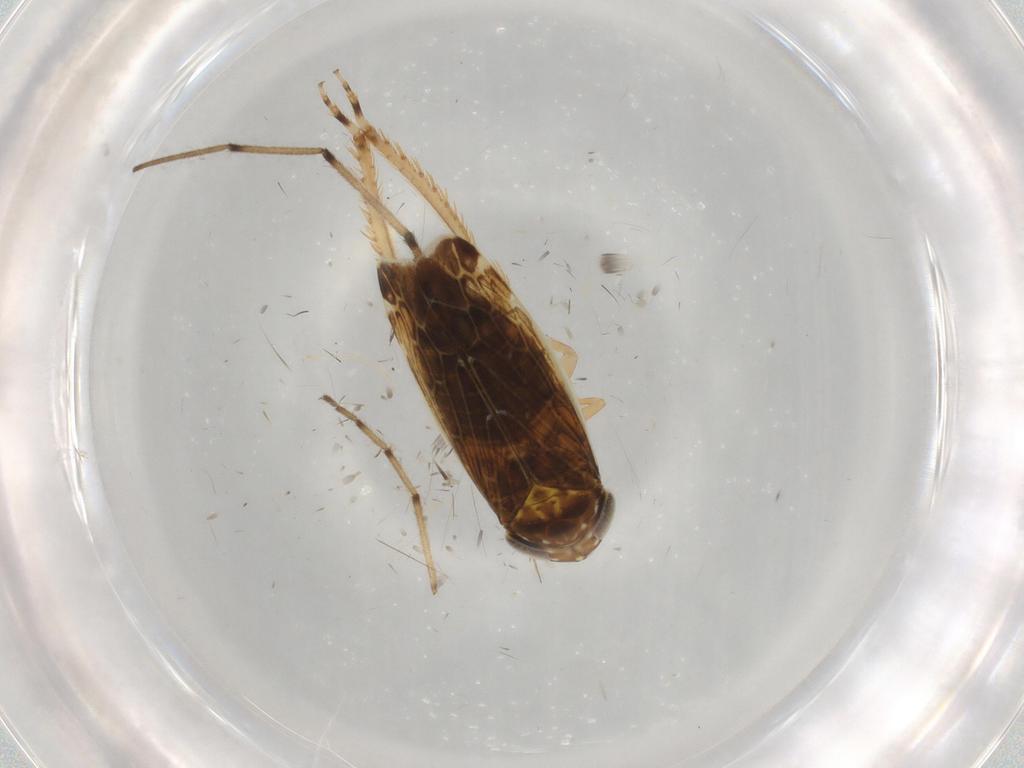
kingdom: Animalia
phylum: Arthropoda
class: Insecta
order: Hemiptera
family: Cicadellidae
